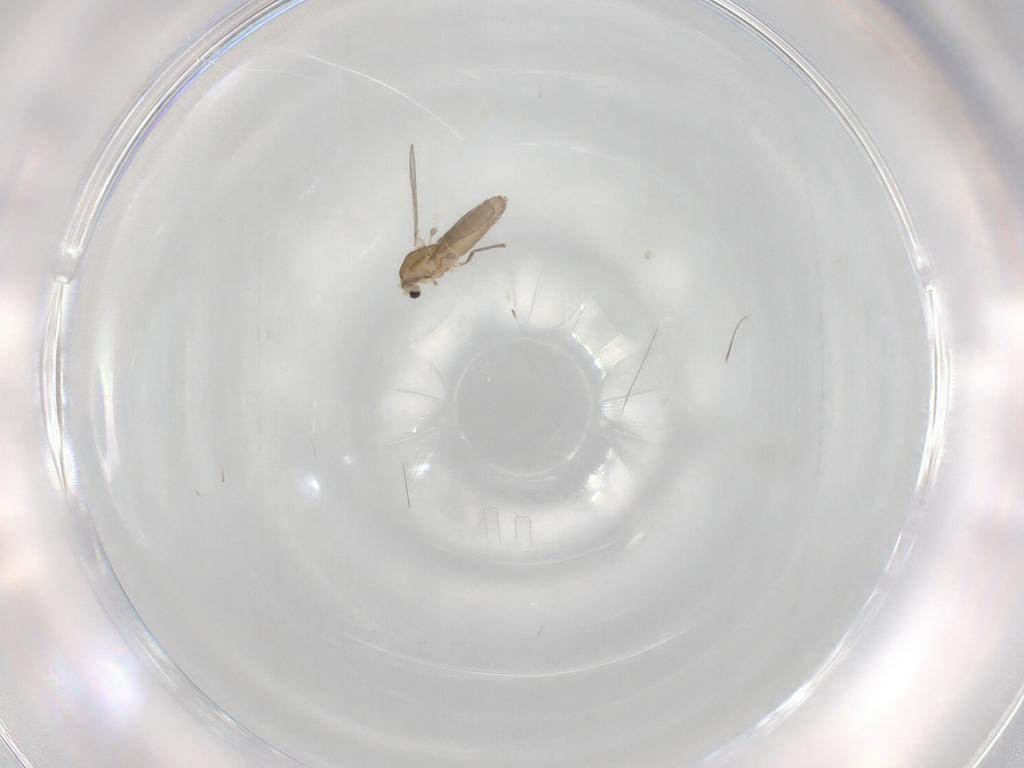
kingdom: Animalia
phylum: Arthropoda
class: Insecta
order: Diptera
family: Chironomidae
